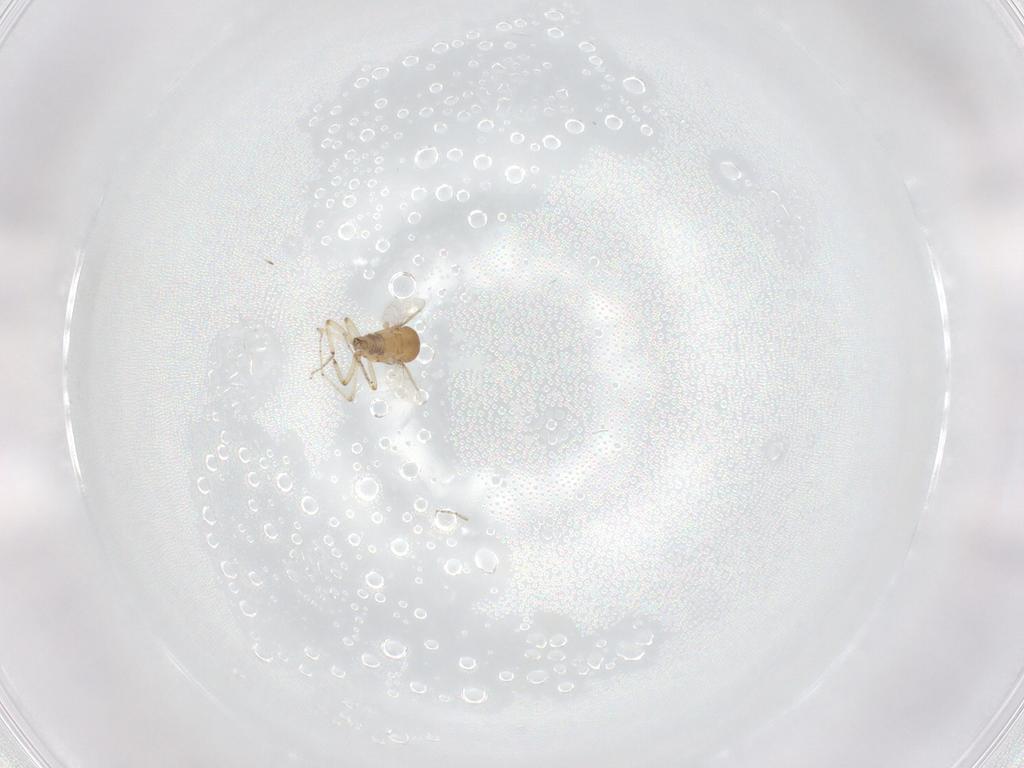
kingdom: Animalia
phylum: Arthropoda
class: Insecta
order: Diptera
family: Ceratopogonidae
